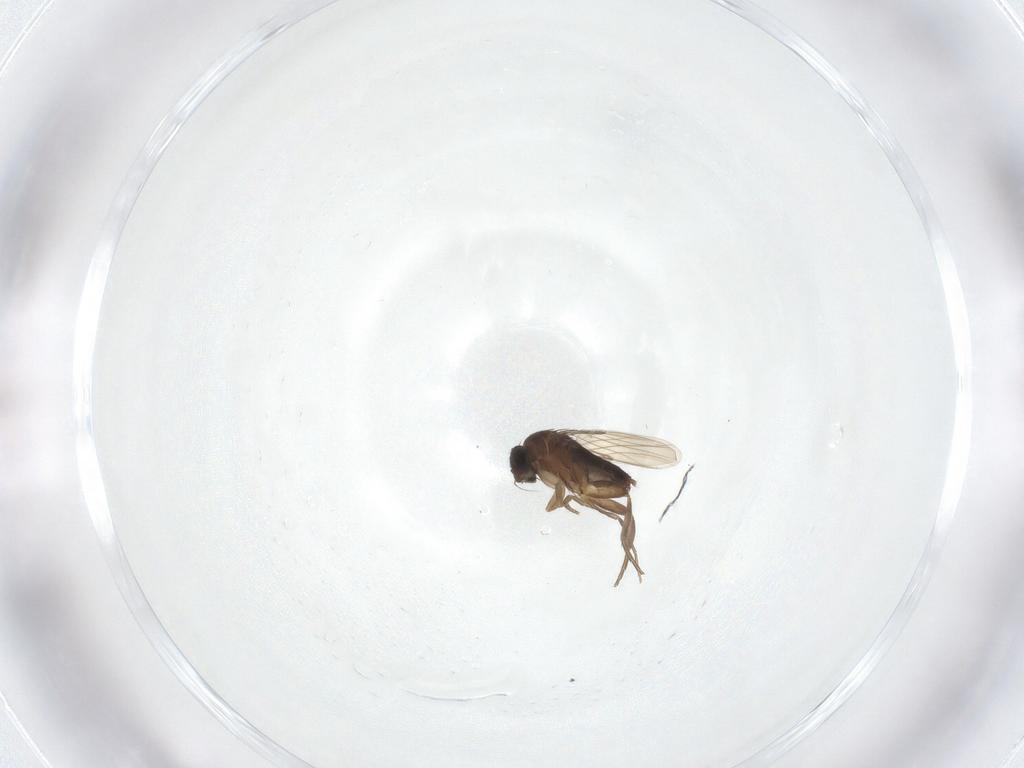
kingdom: Animalia
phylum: Arthropoda
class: Insecta
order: Diptera
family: Phoridae
